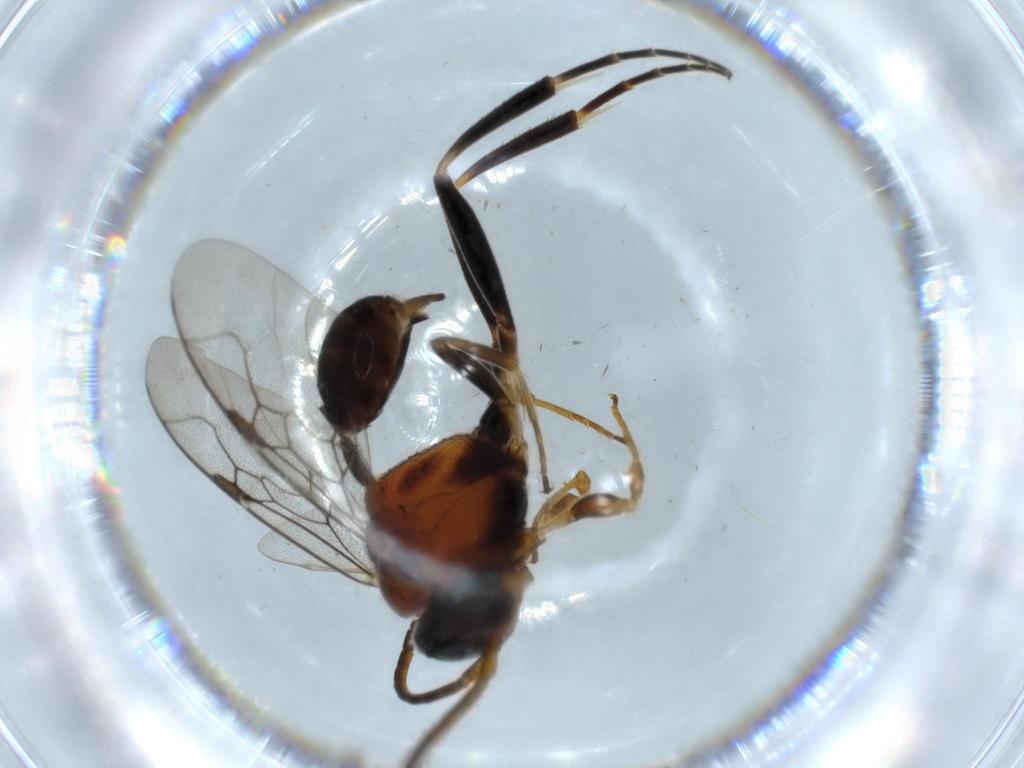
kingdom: Animalia
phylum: Arthropoda
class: Insecta
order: Hymenoptera
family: Evaniidae
